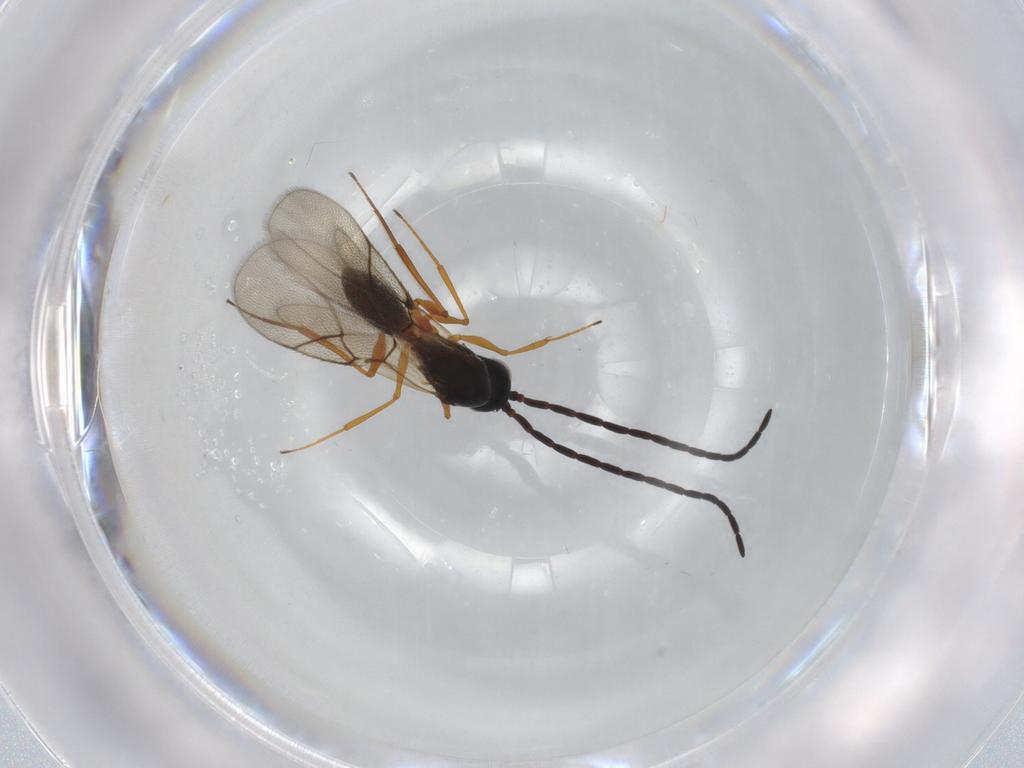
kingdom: Animalia
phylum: Arthropoda
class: Insecta
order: Hymenoptera
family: Figitidae
